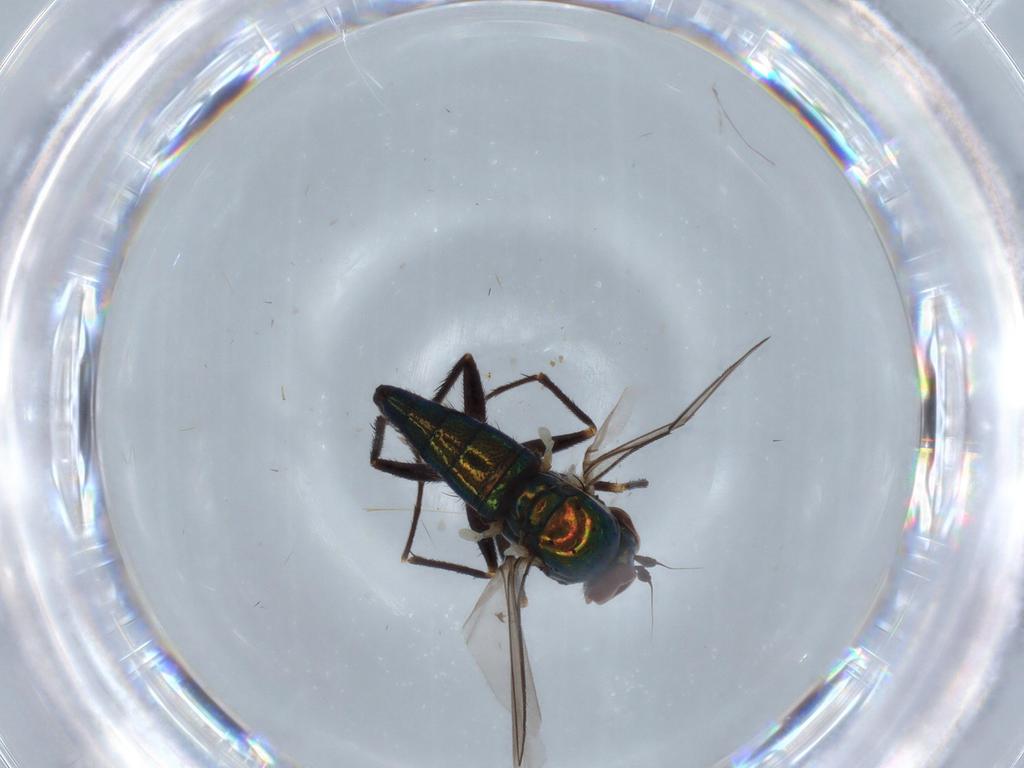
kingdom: Animalia
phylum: Arthropoda
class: Insecta
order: Diptera
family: Dolichopodidae
